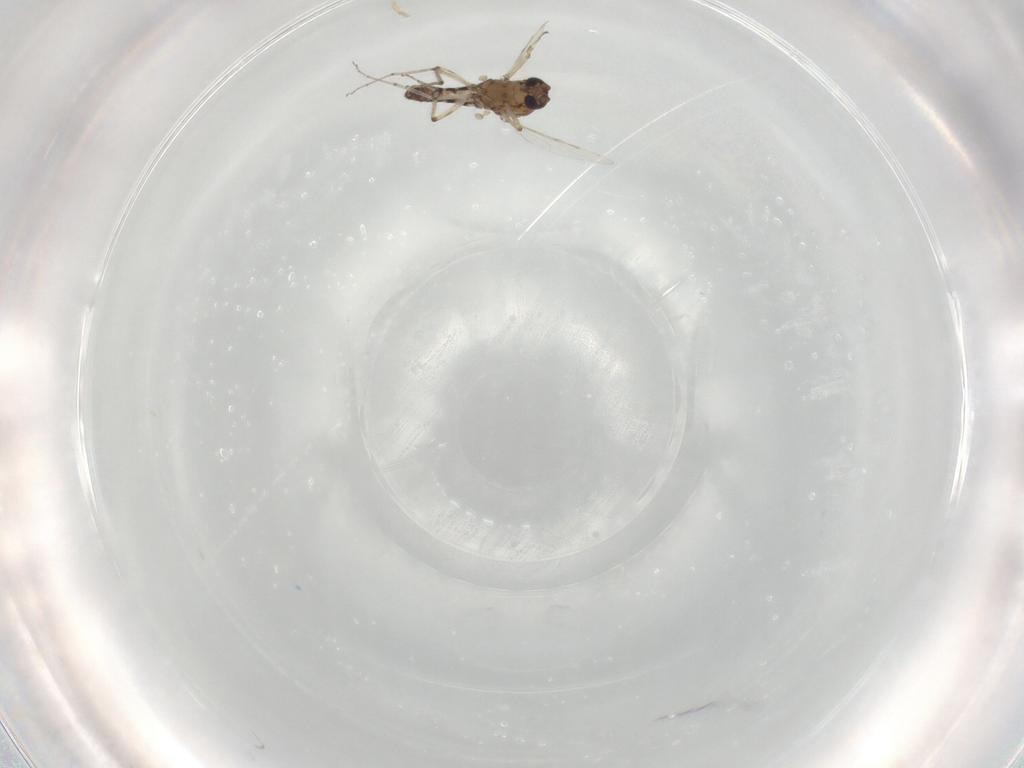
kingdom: Animalia
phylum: Arthropoda
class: Insecta
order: Diptera
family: Ceratopogonidae
